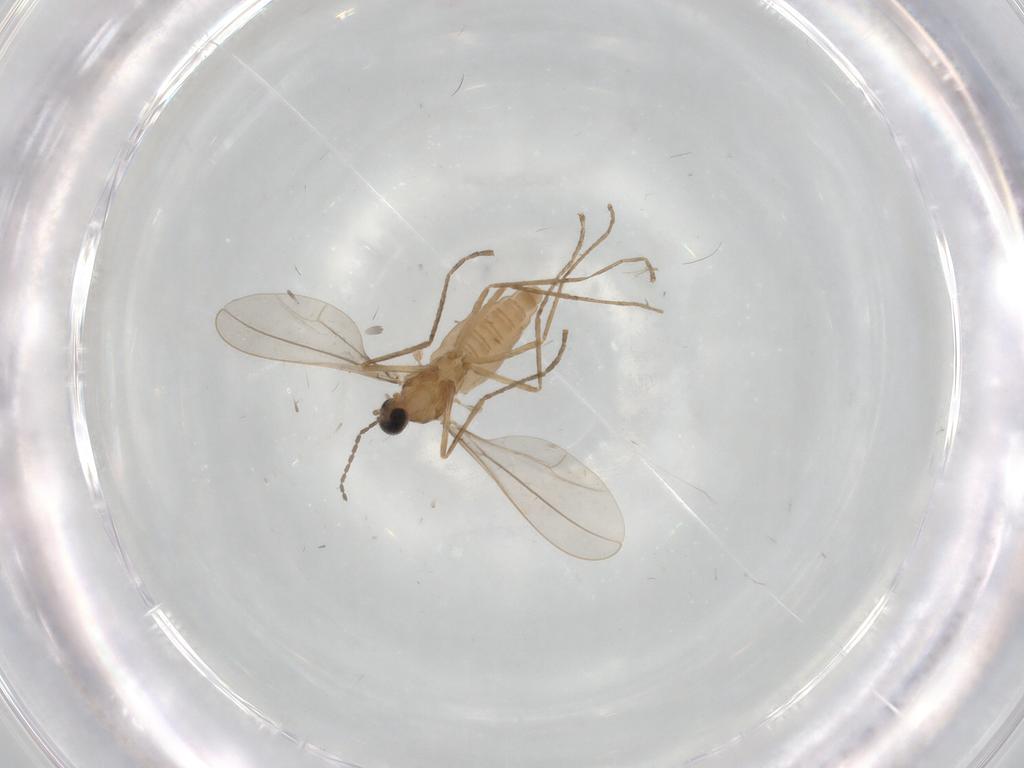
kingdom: Animalia
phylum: Arthropoda
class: Insecta
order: Diptera
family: Cecidomyiidae
